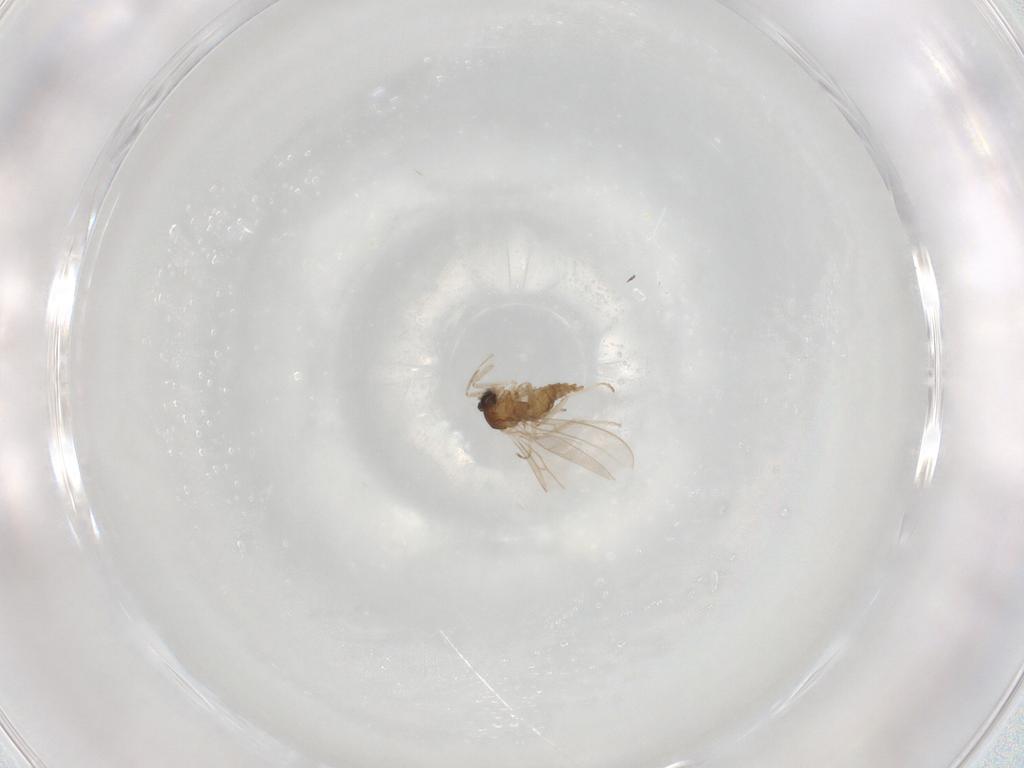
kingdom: Animalia
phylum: Arthropoda
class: Insecta
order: Diptera
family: Cecidomyiidae
